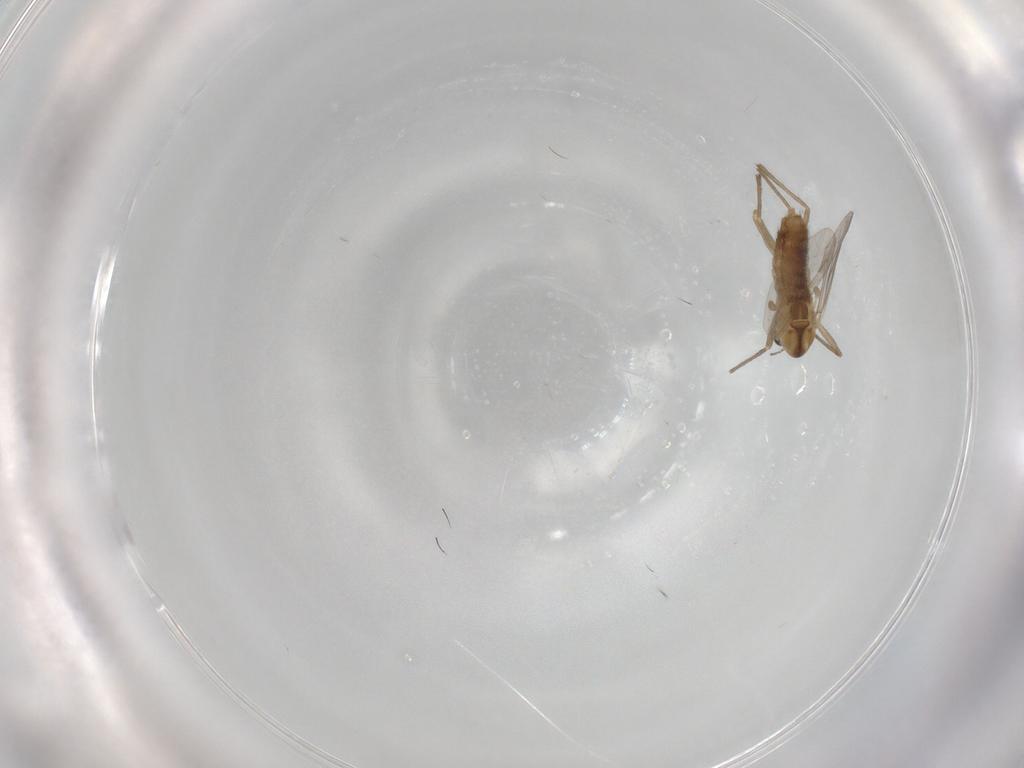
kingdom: Animalia
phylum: Arthropoda
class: Insecta
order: Diptera
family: Chironomidae
